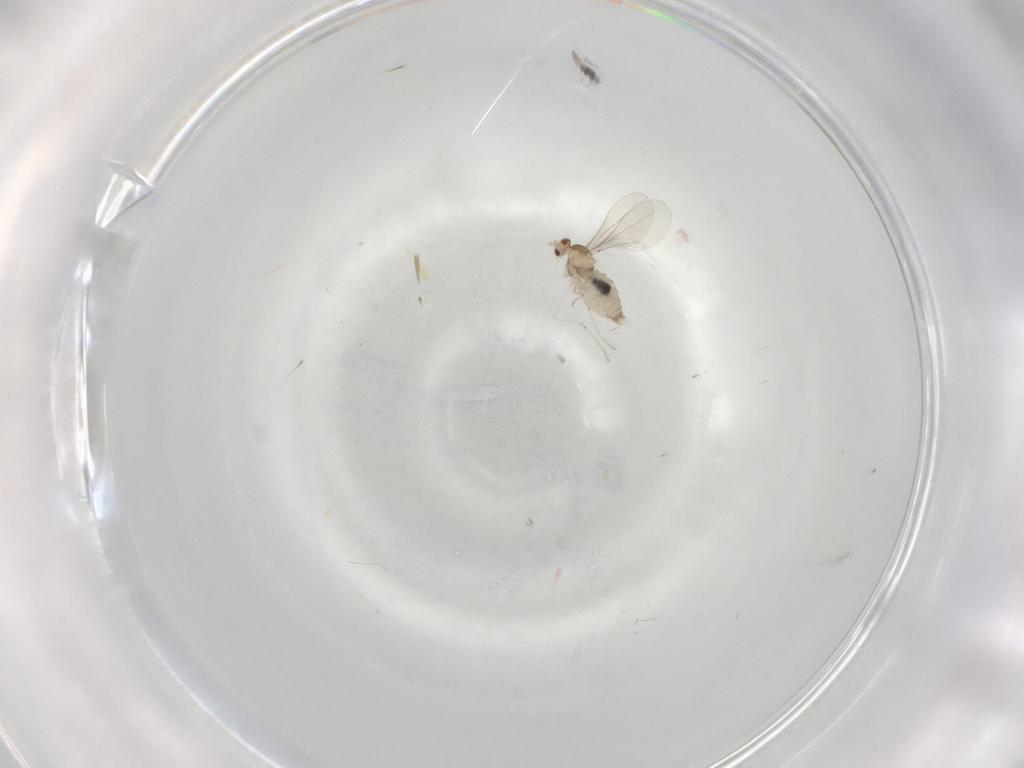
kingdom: Animalia
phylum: Arthropoda
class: Insecta
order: Diptera
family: Cecidomyiidae
